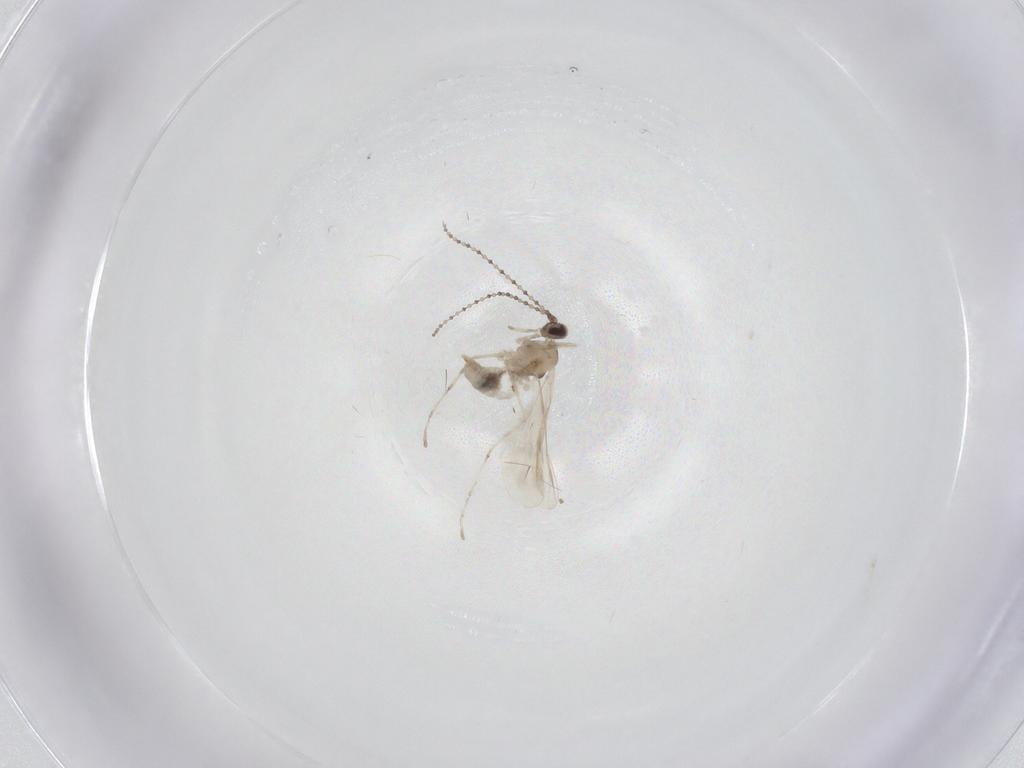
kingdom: Animalia
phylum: Arthropoda
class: Insecta
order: Diptera
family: Cecidomyiidae
